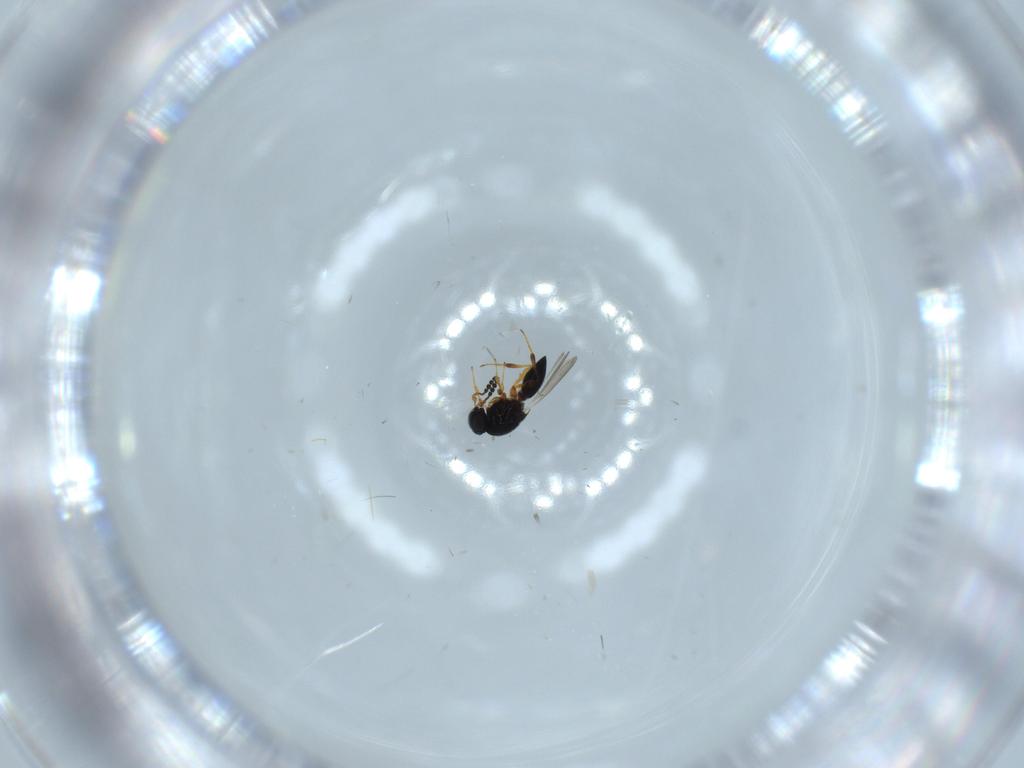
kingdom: Animalia
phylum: Arthropoda
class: Insecta
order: Hymenoptera
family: Platygastridae
